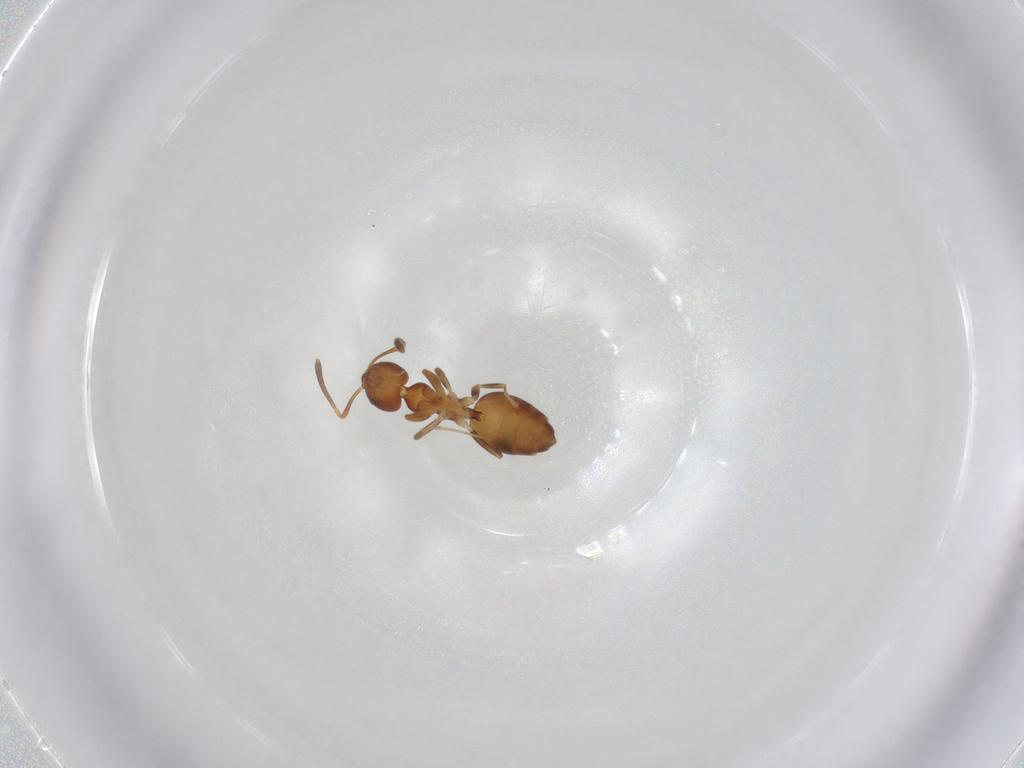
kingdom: Animalia
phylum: Arthropoda
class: Insecta
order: Hymenoptera
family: Formicidae
